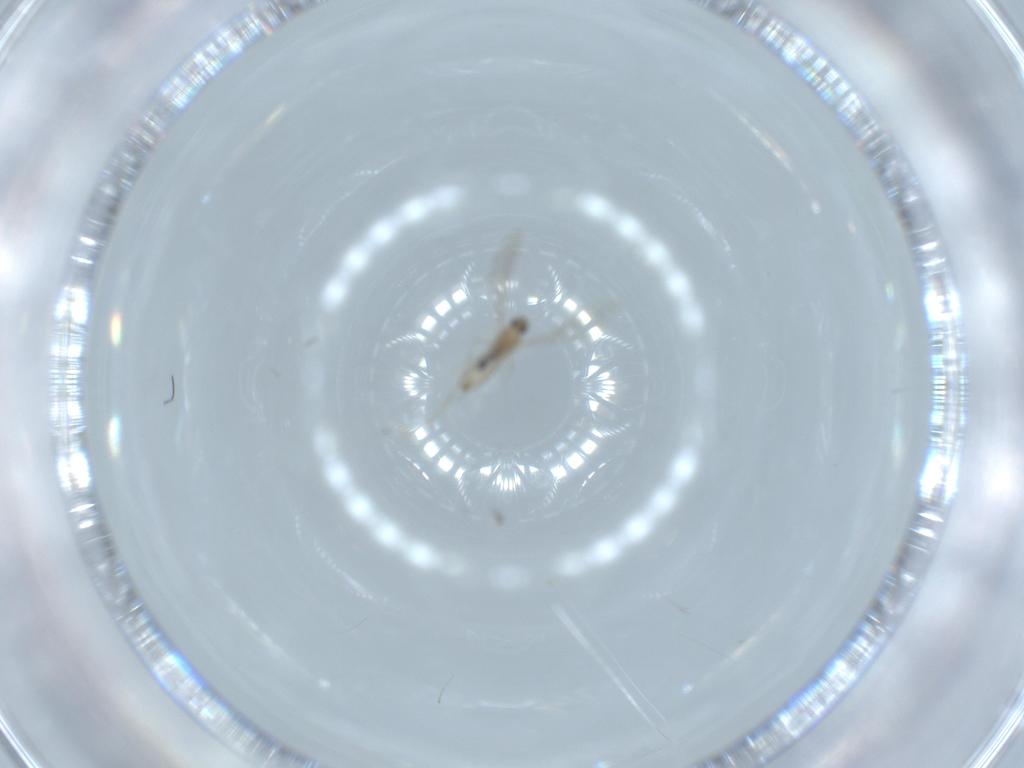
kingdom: Animalia
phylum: Arthropoda
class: Insecta
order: Diptera
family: Cecidomyiidae
